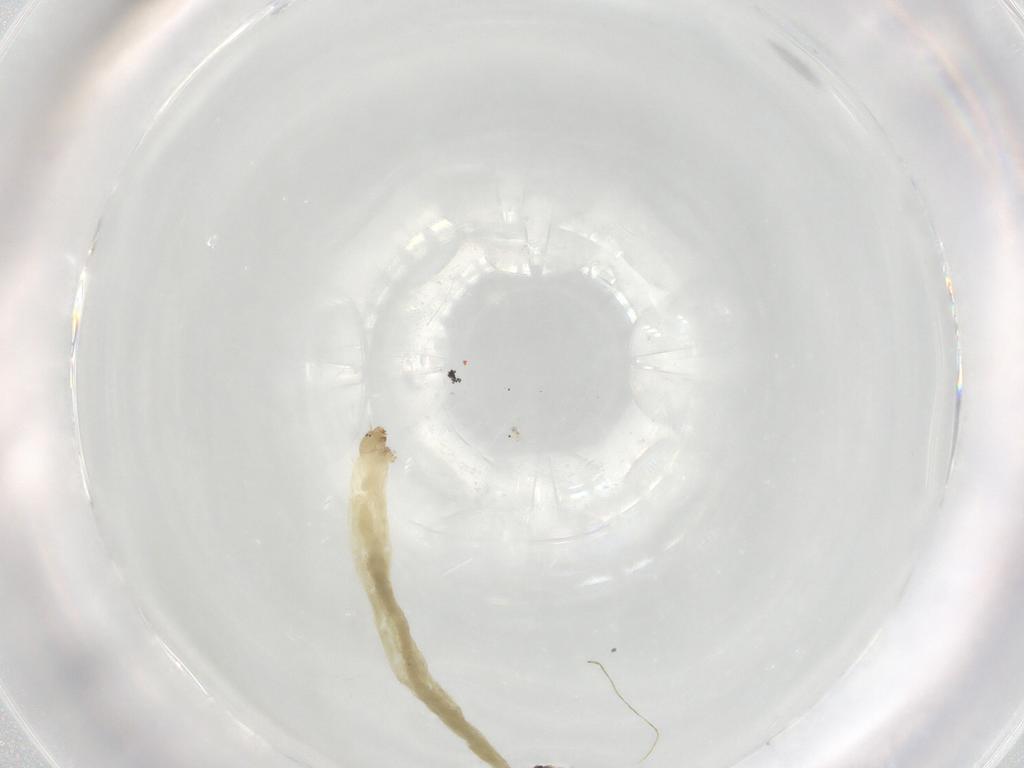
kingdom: Animalia
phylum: Arthropoda
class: Insecta
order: Diptera
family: Chironomidae
